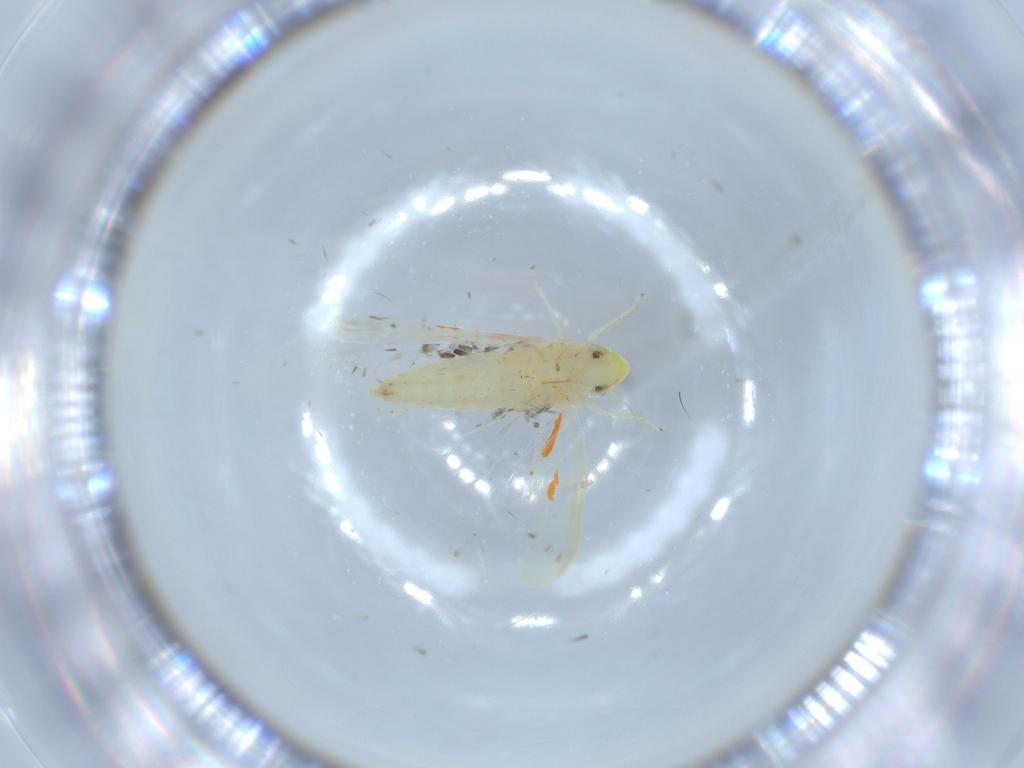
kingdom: Animalia
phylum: Arthropoda
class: Insecta
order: Hemiptera
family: Cicadellidae
